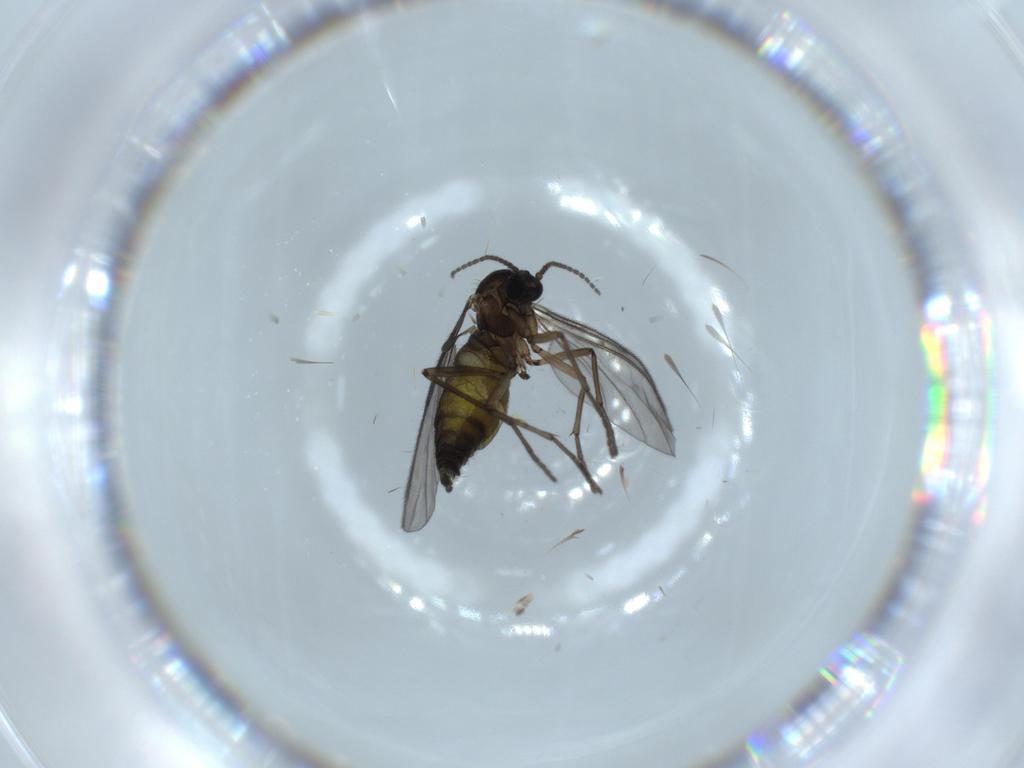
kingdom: Animalia
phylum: Arthropoda
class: Insecta
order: Diptera
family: Sciaridae
